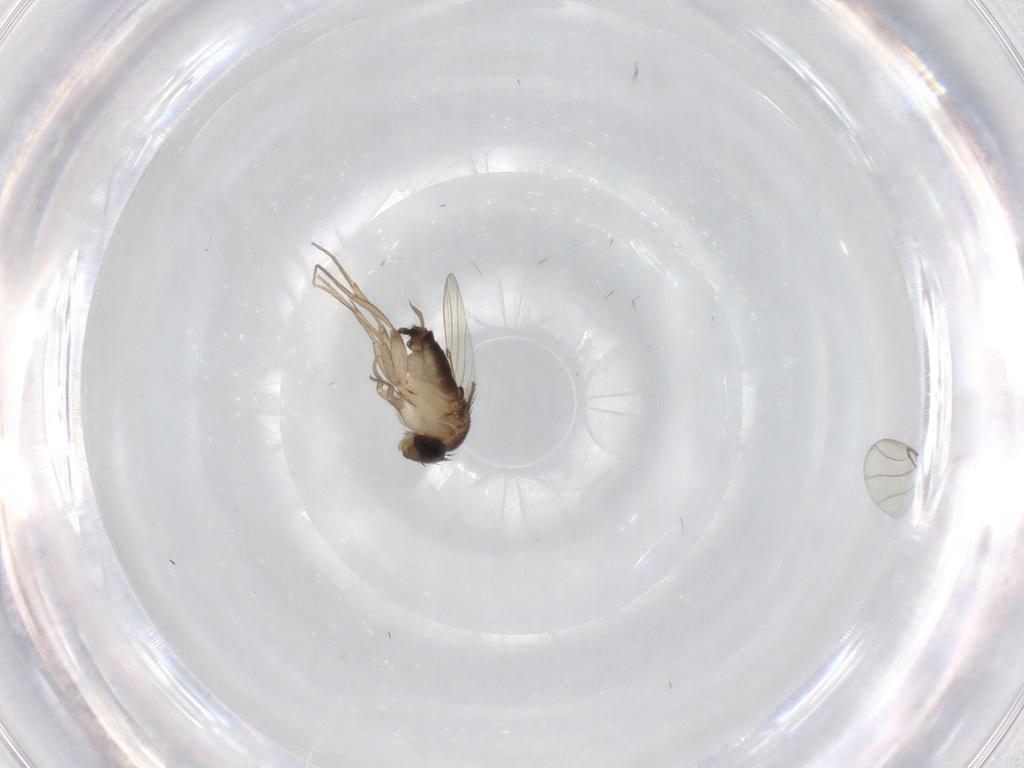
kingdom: Animalia
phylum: Arthropoda
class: Insecta
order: Diptera
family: Phoridae
